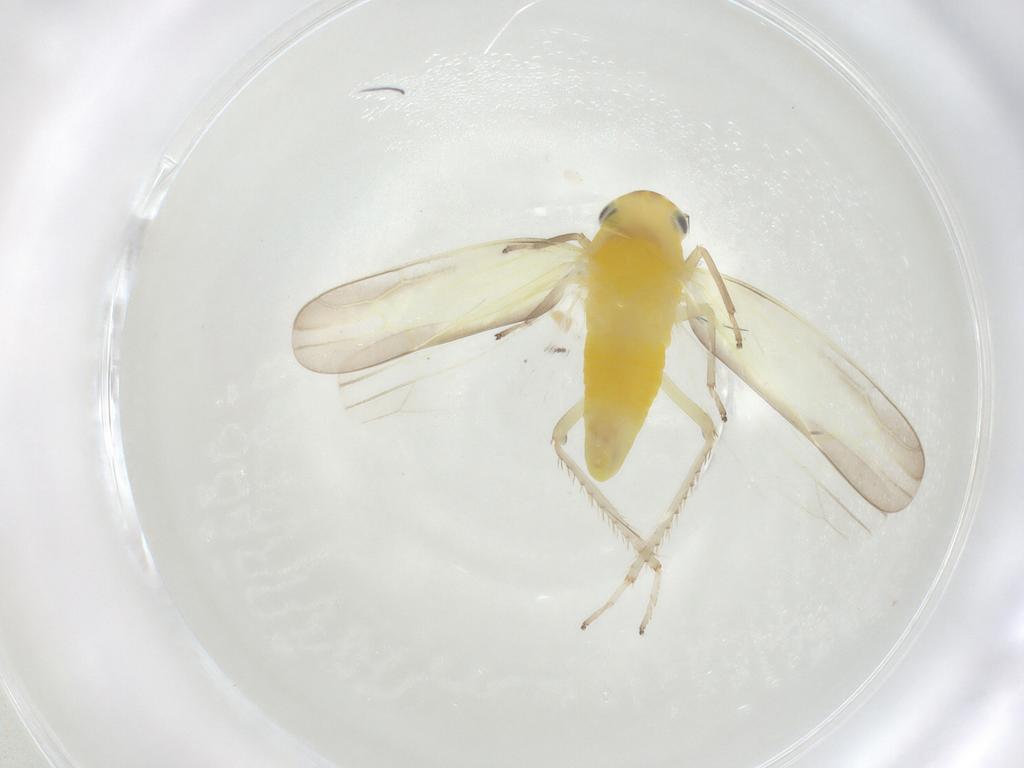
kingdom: Animalia
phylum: Arthropoda
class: Insecta
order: Hemiptera
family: Cicadellidae
